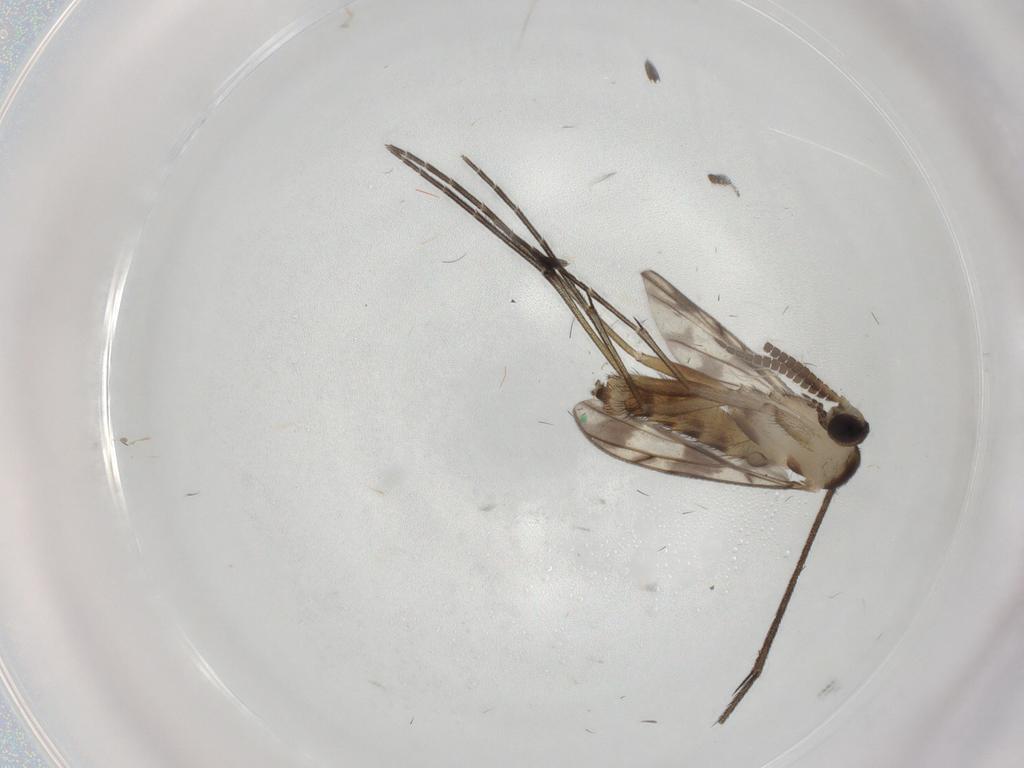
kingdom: Animalia
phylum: Arthropoda
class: Insecta
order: Diptera
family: Keroplatidae
